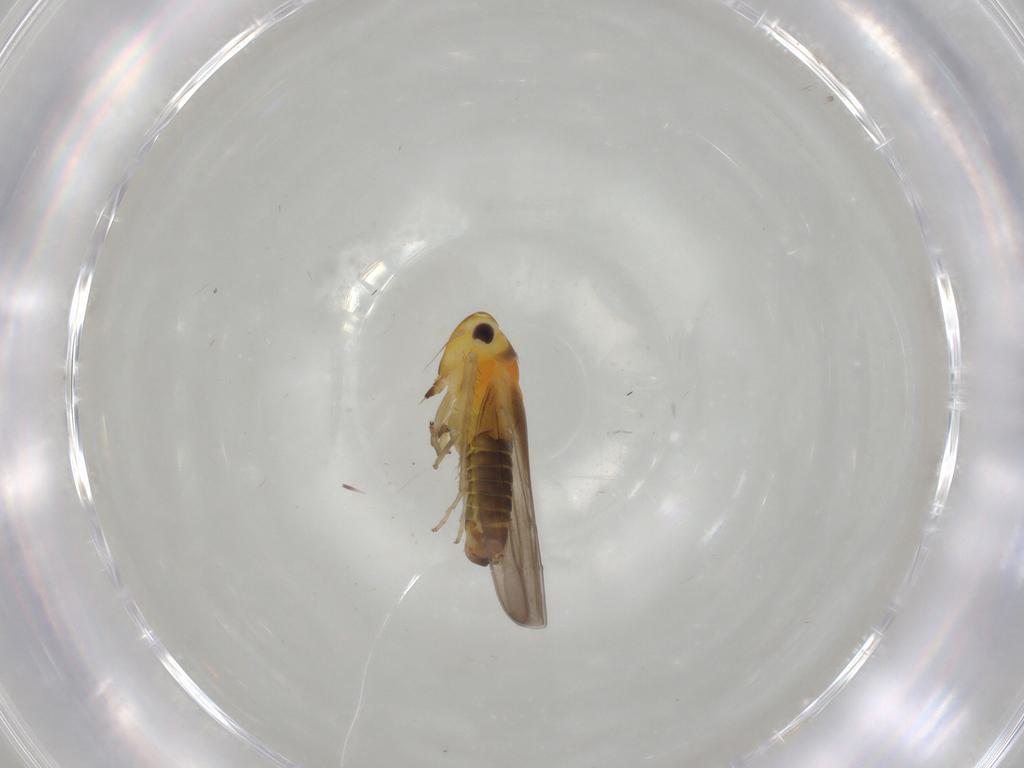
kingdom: Animalia
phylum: Arthropoda
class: Insecta
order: Hemiptera
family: Cicadellidae
